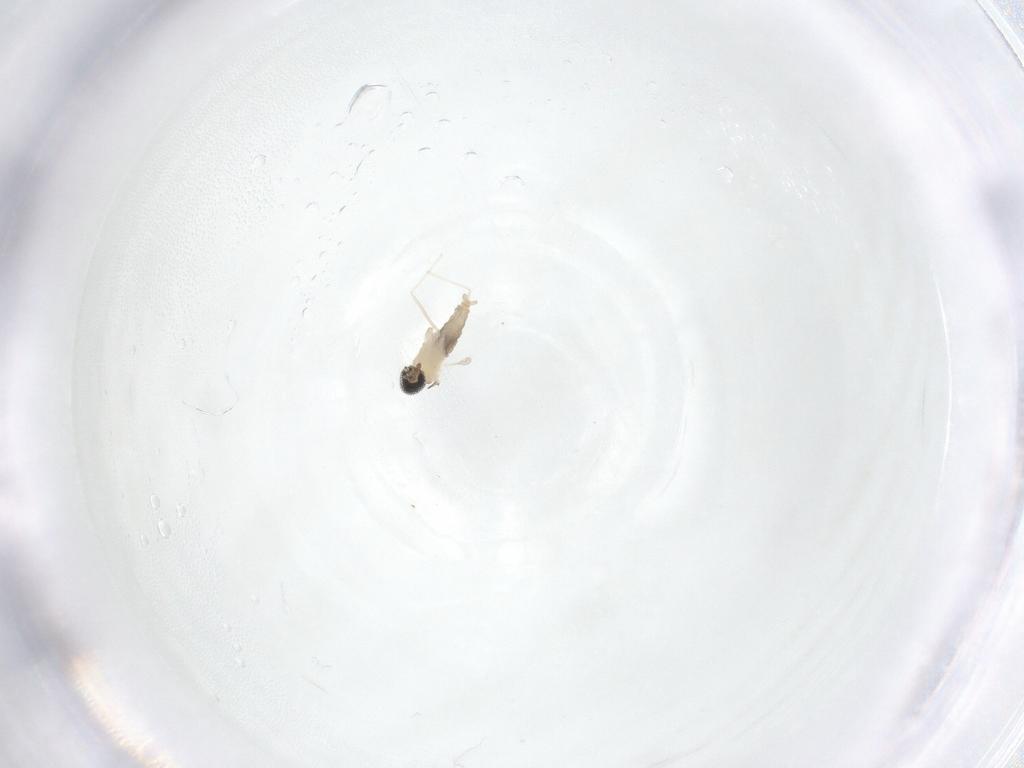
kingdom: Animalia
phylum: Arthropoda
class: Insecta
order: Diptera
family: Cecidomyiidae
